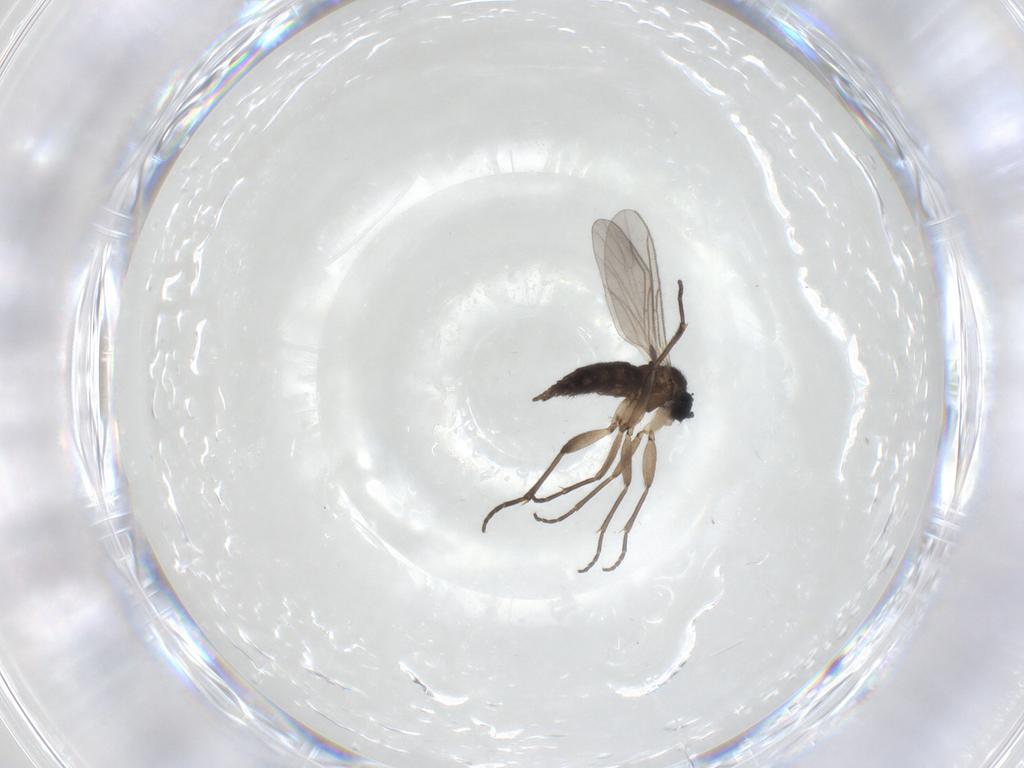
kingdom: Animalia
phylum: Arthropoda
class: Insecta
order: Diptera
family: Sciaridae
